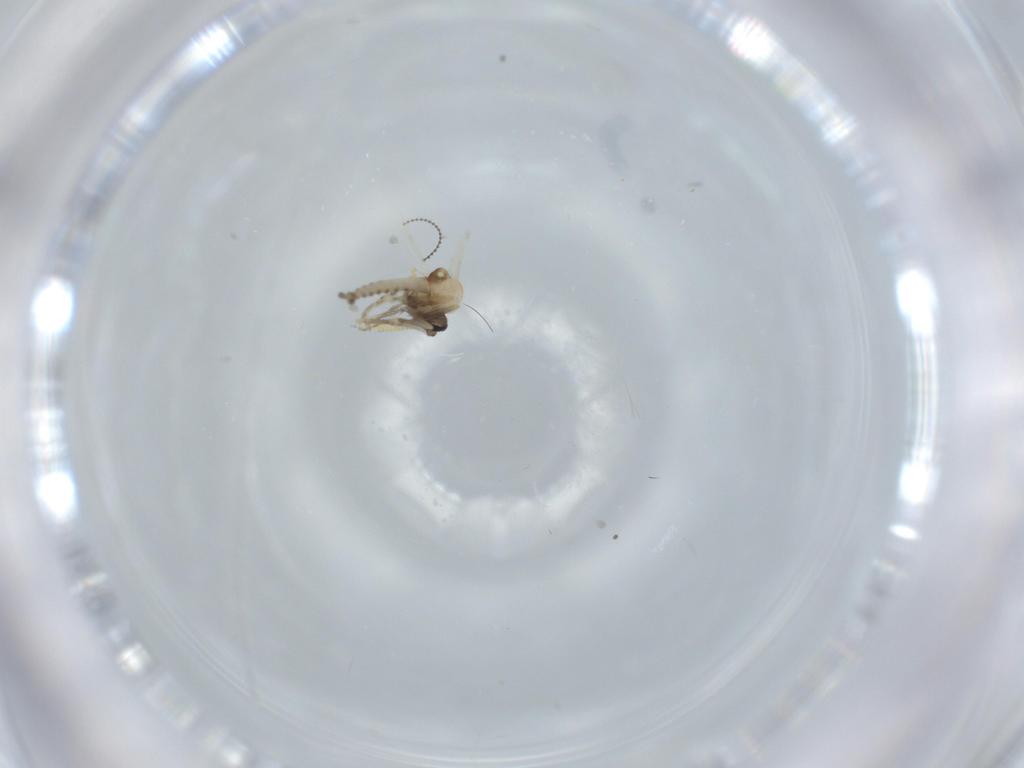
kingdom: Animalia
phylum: Arthropoda
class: Insecta
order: Diptera
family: Ceratopogonidae
